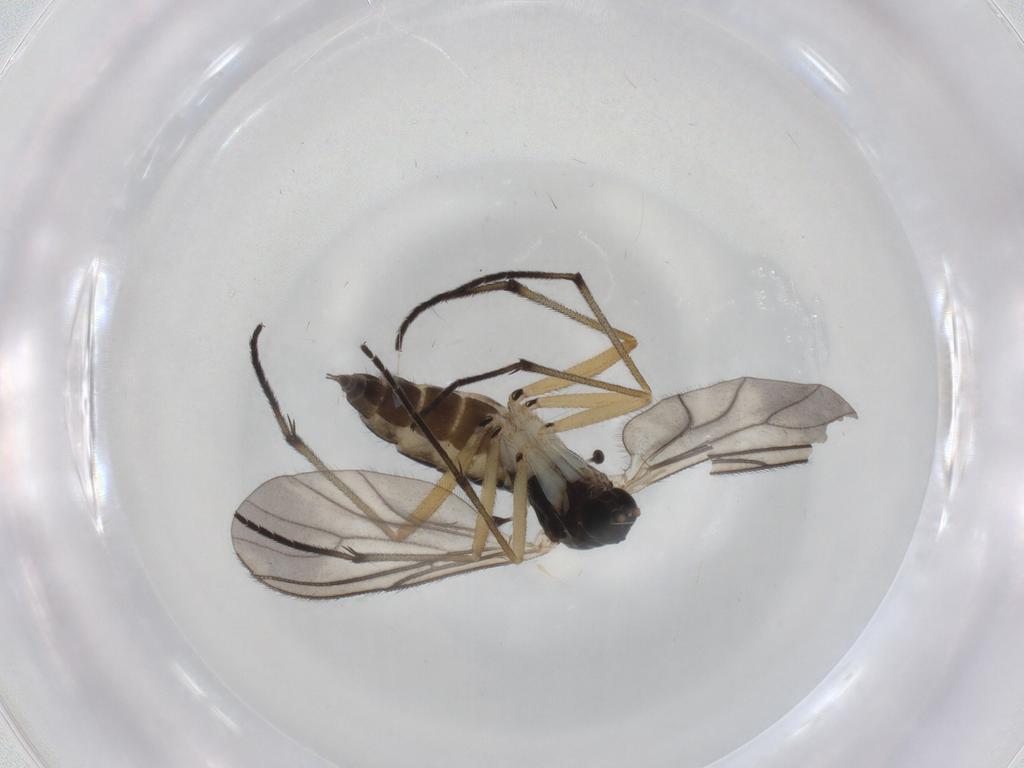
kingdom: Animalia
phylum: Arthropoda
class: Insecta
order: Diptera
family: Sciaridae
